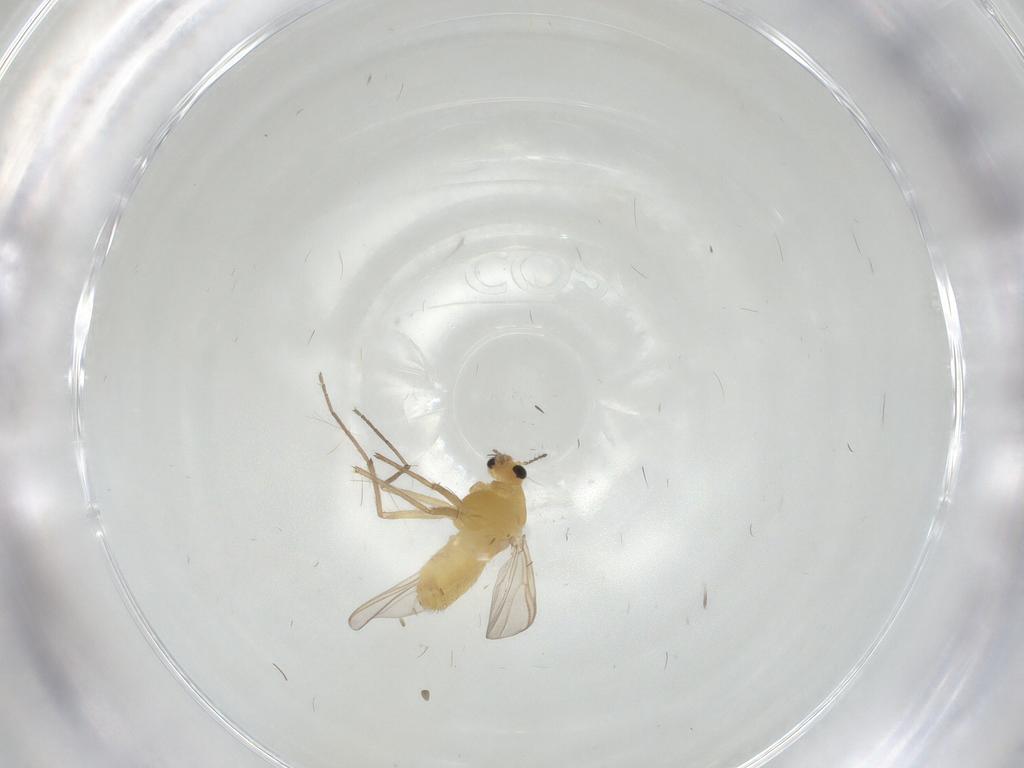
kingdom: Animalia
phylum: Arthropoda
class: Insecta
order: Diptera
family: Chironomidae
